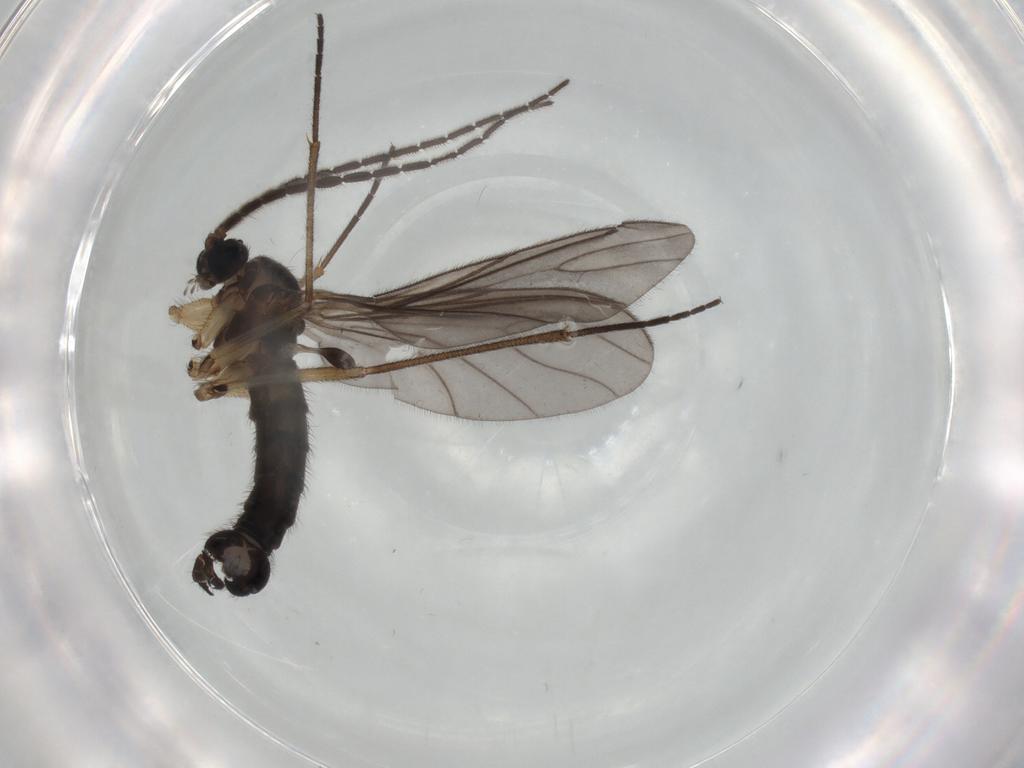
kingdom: Animalia
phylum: Arthropoda
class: Insecta
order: Diptera
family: Sciaridae
